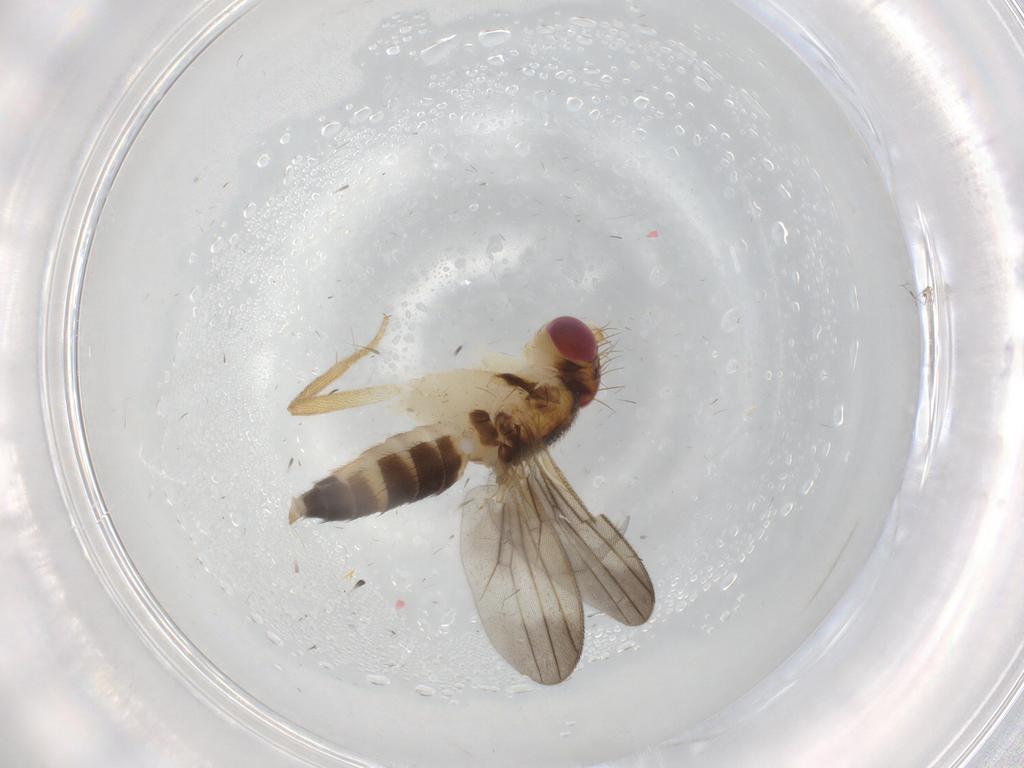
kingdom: Animalia
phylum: Arthropoda
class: Insecta
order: Diptera
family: Clusiidae
